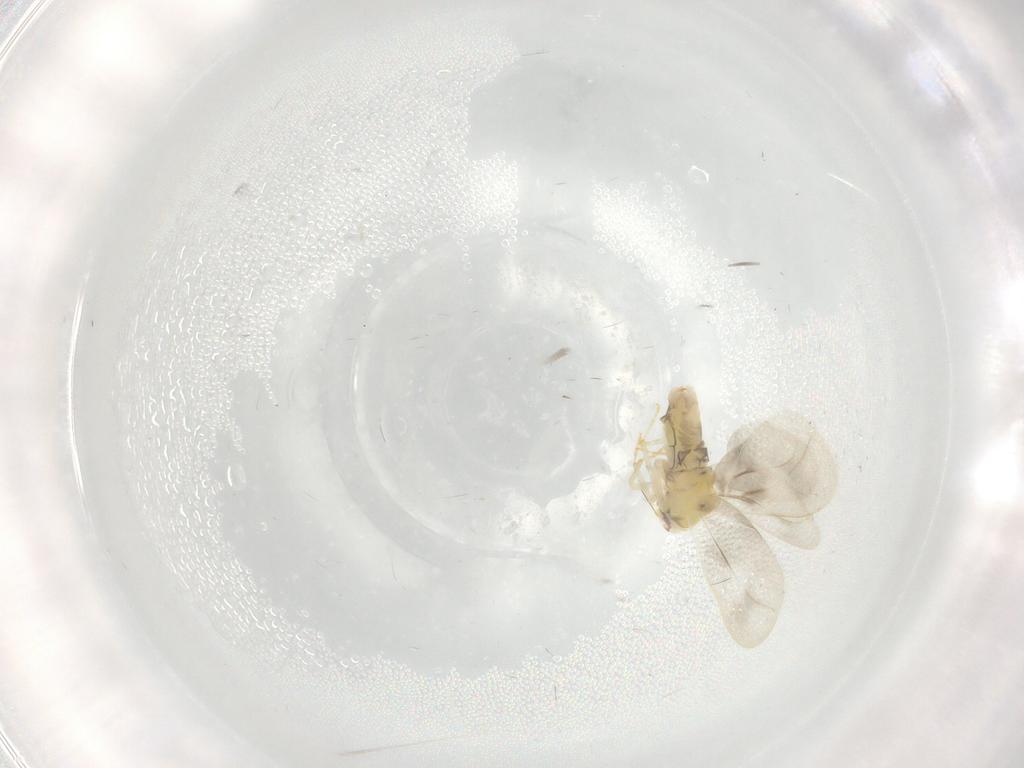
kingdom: Animalia
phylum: Arthropoda
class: Insecta
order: Hemiptera
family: Aleyrodidae
